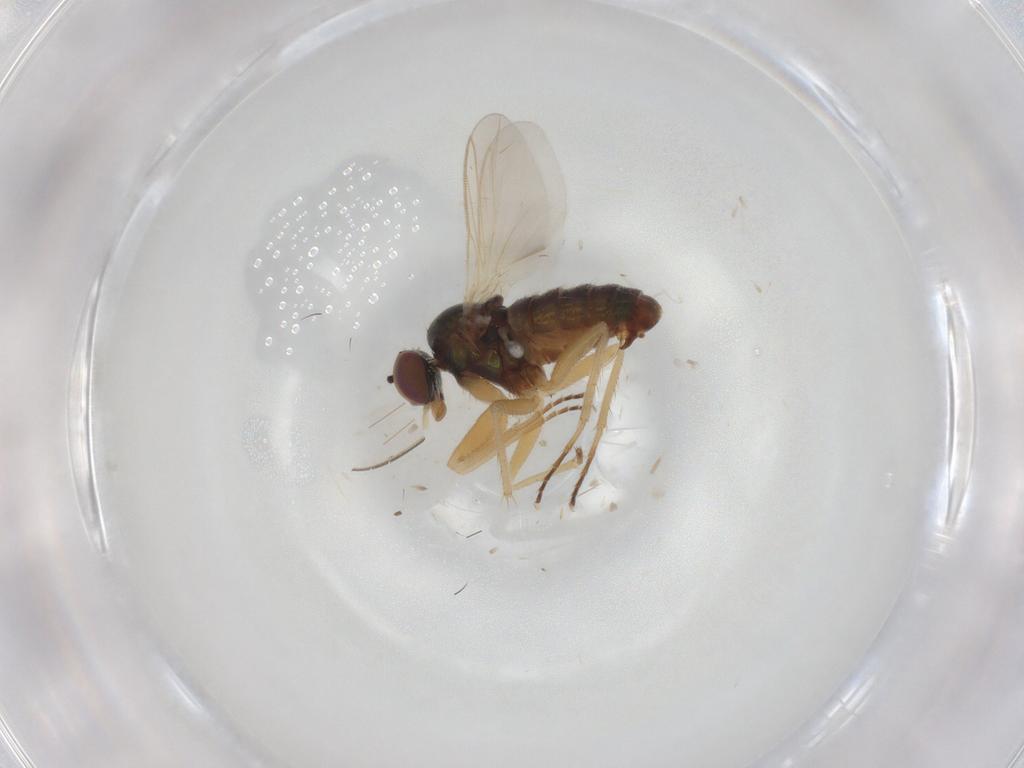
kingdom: Animalia
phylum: Arthropoda
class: Insecta
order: Diptera
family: Dolichopodidae
